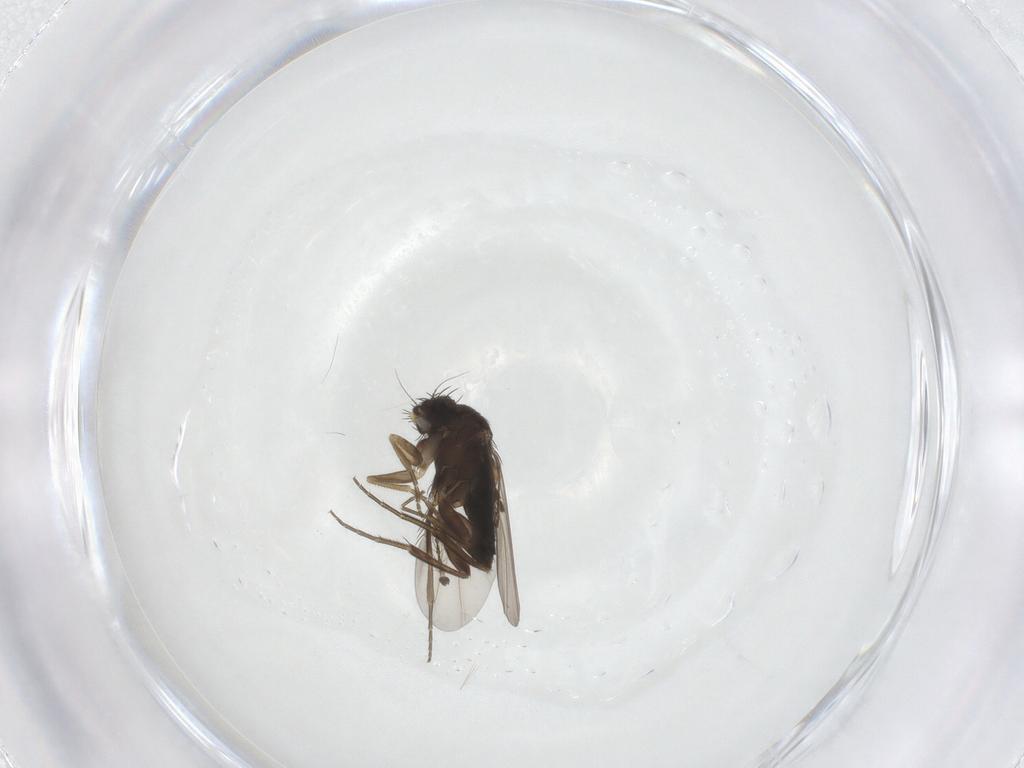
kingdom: Animalia
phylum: Arthropoda
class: Insecta
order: Diptera
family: Phoridae
